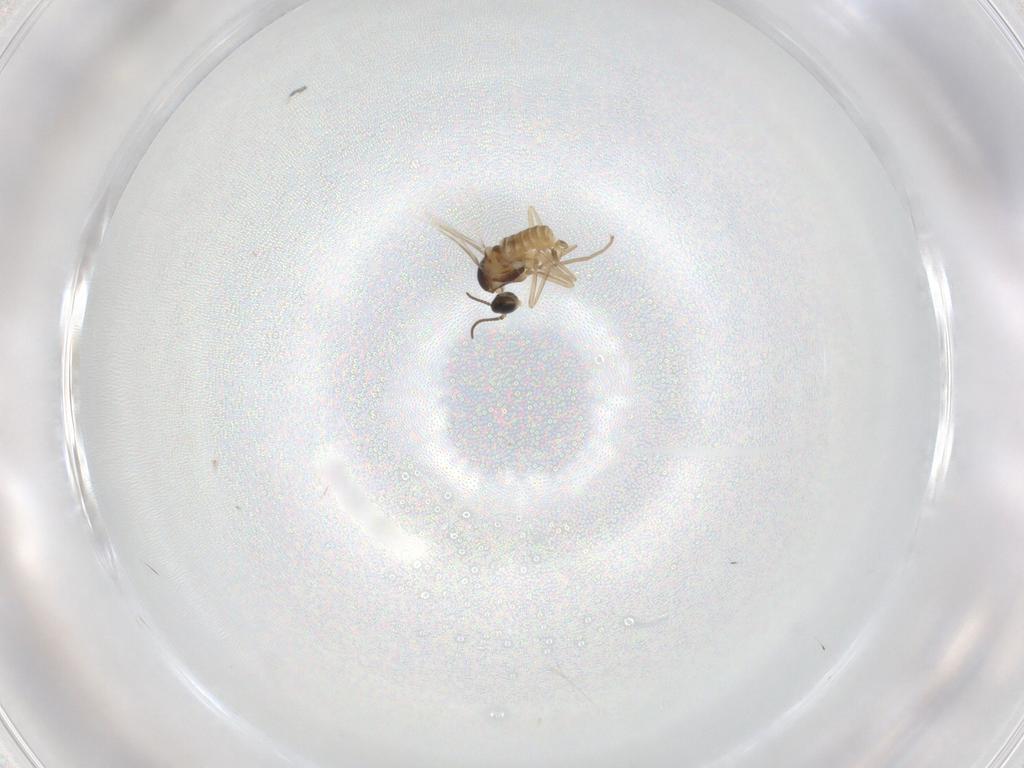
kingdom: Animalia
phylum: Arthropoda
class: Insecta
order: Diptera
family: Cecidomyiidae
